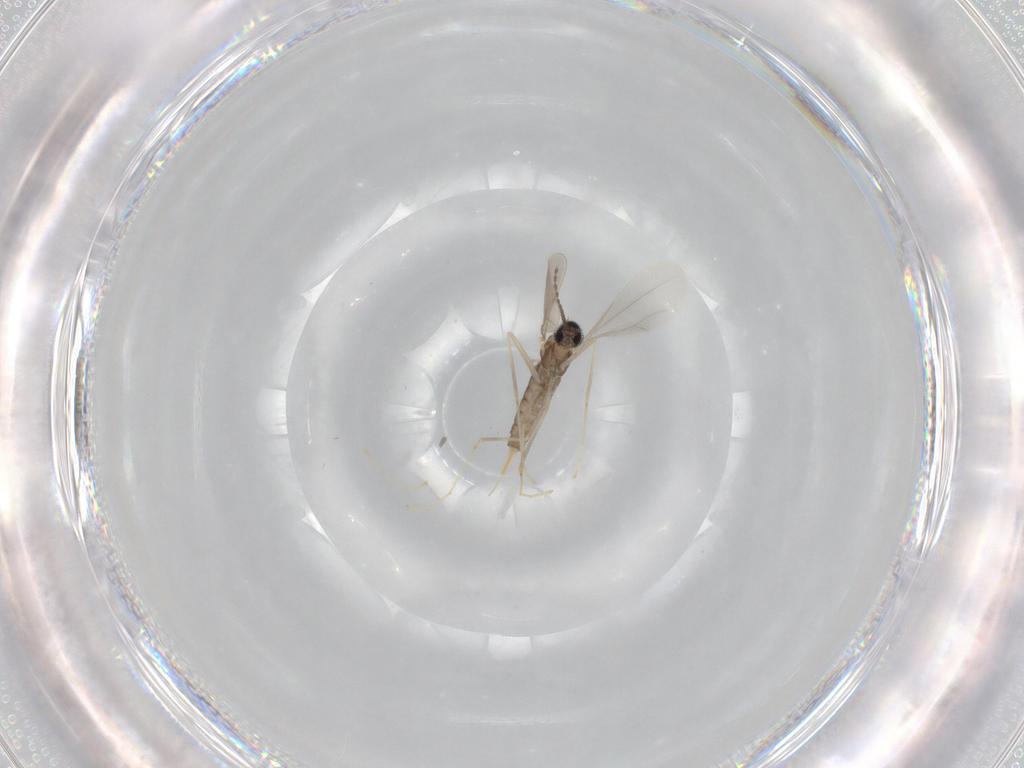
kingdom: Animalia
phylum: Arthropoda
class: Insecta
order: Diptera
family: Cecidomyiidae
